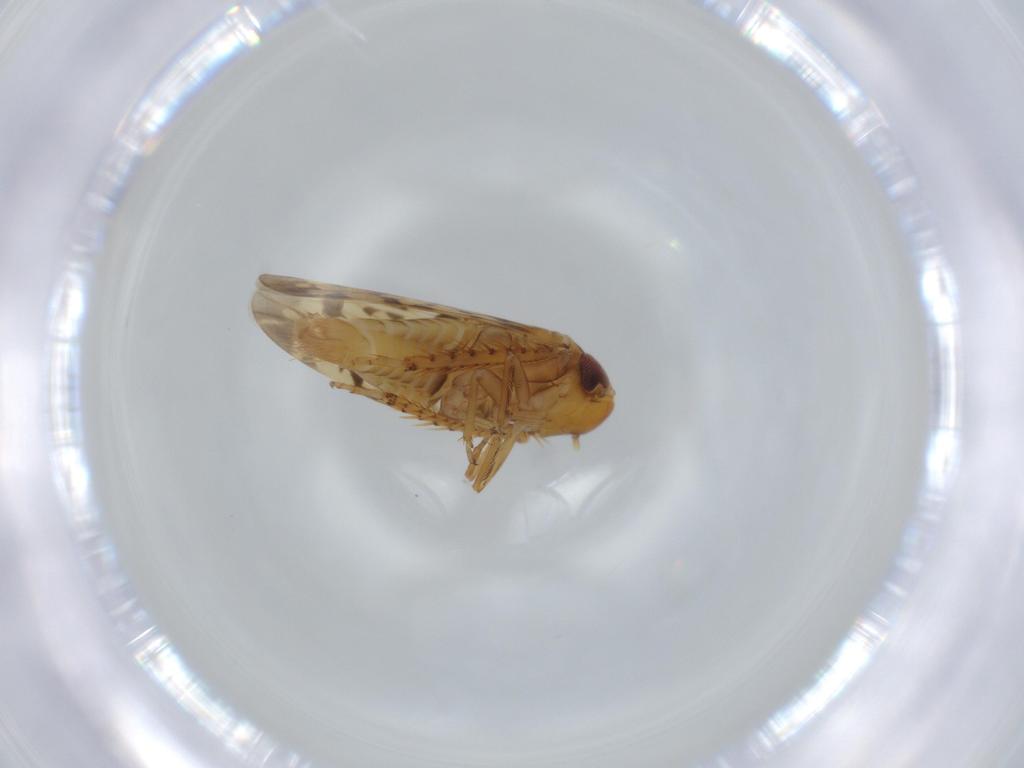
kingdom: Animalia
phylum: Arthropoda
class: Insecta
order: Hemiptera
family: Cicadellidae
